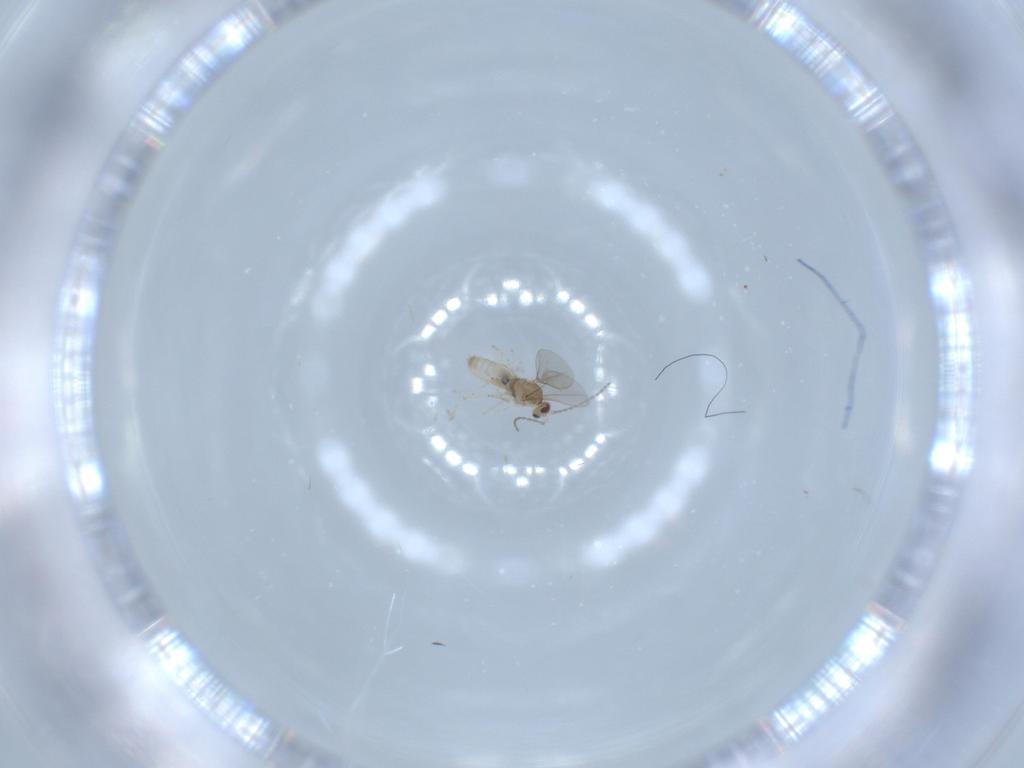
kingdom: Animalia
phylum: Arthropoda
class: Insecta
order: Diptera
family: Cecidomyiidae
